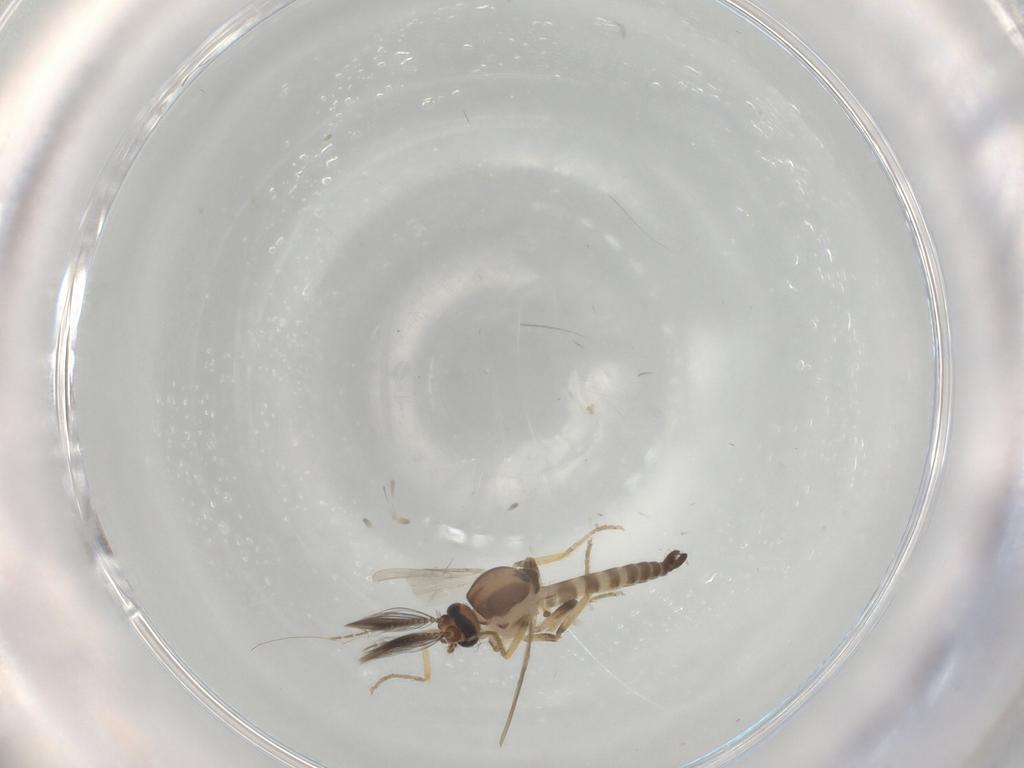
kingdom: Animalia
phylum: Arthropoda
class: Insecta
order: Diptera
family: Ceratopogonidae
